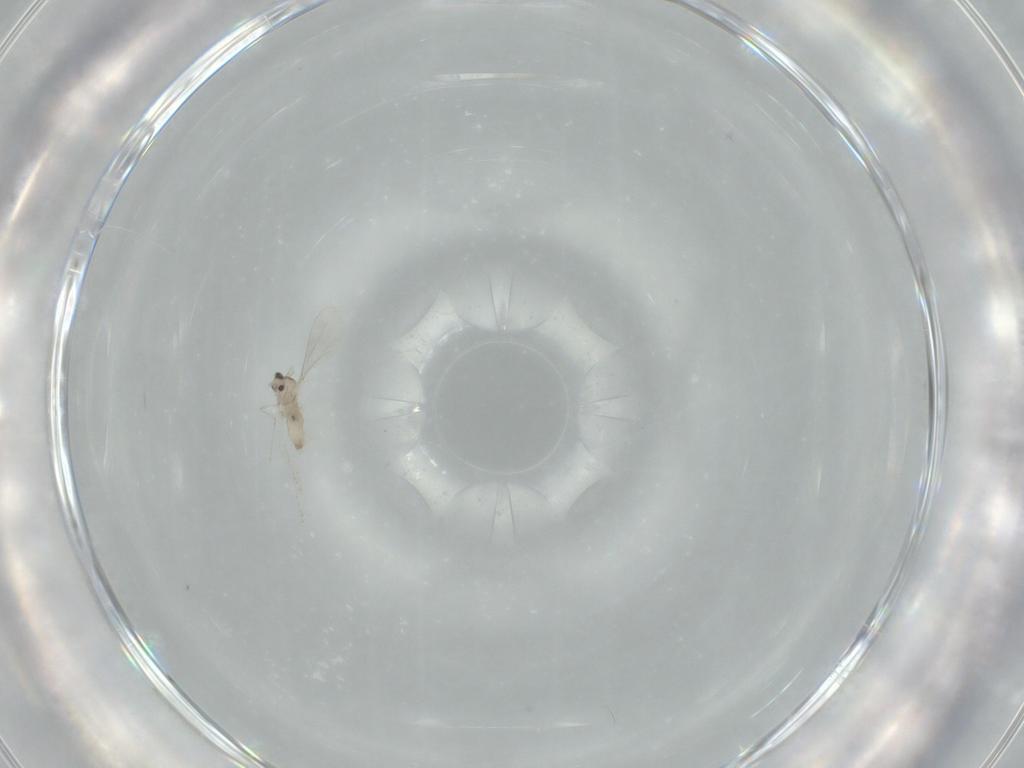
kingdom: Animalia
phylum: Arthropoda
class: Insecta
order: Diptera
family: Cecidomyiidae
